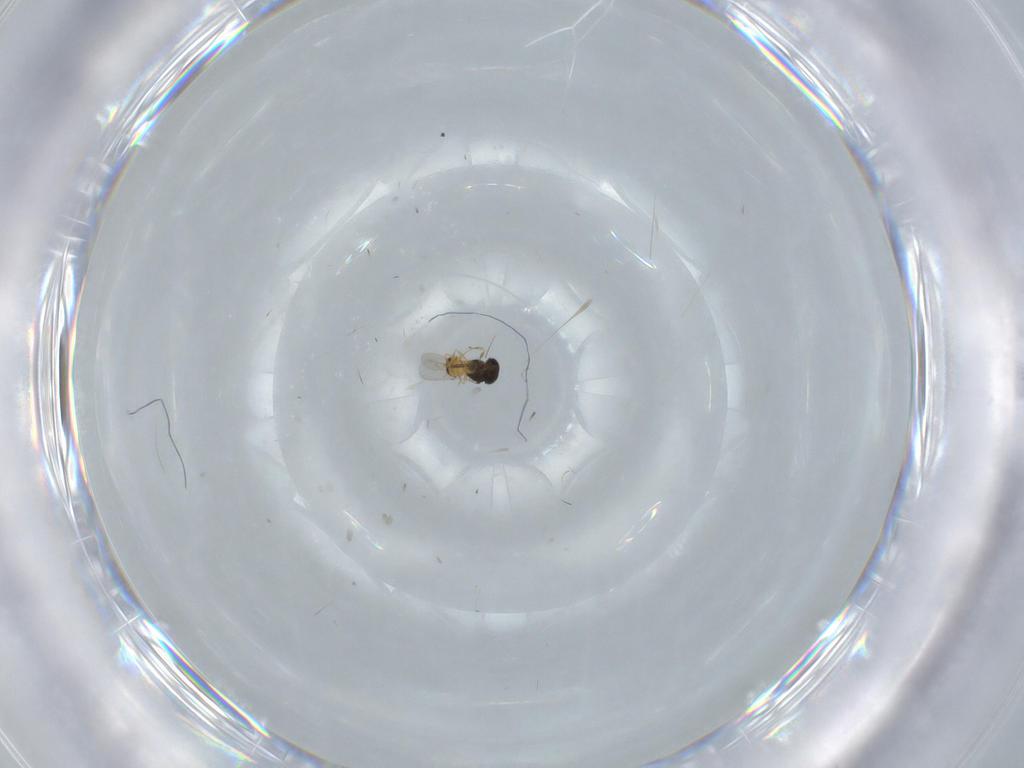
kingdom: Animalia
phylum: Arthropoda
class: Insecta
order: Hymenoptera
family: Scelionidae
